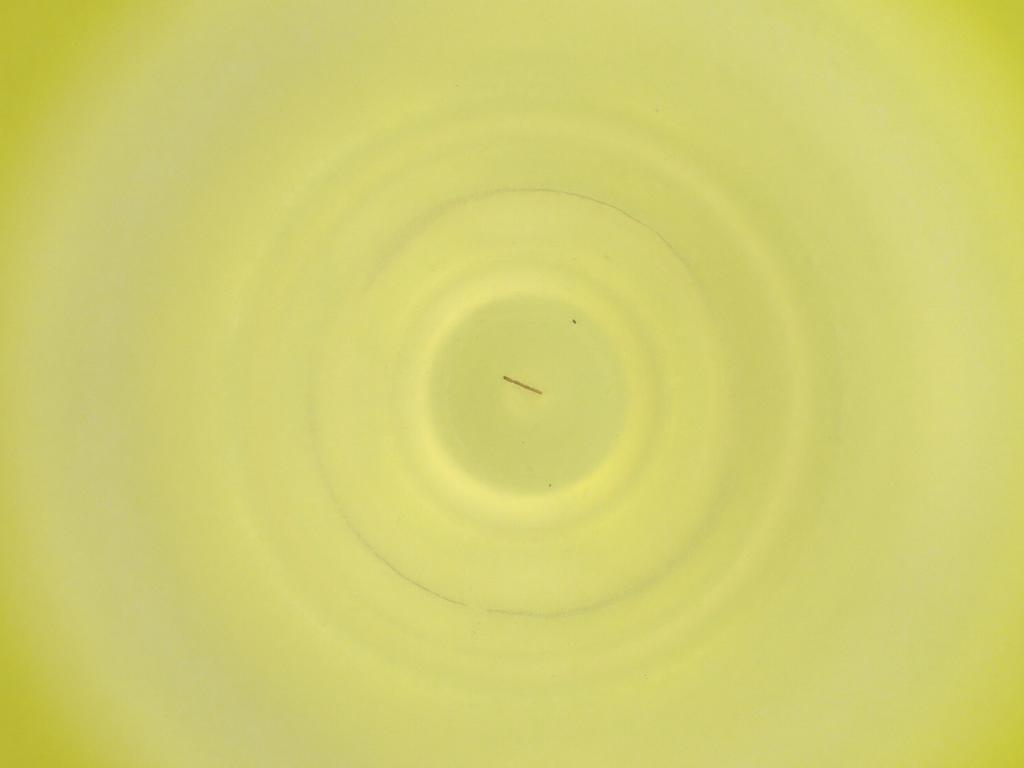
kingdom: Animalia
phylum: Arthropoda
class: Insecta
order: Diptera
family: Cecidomyiidae
